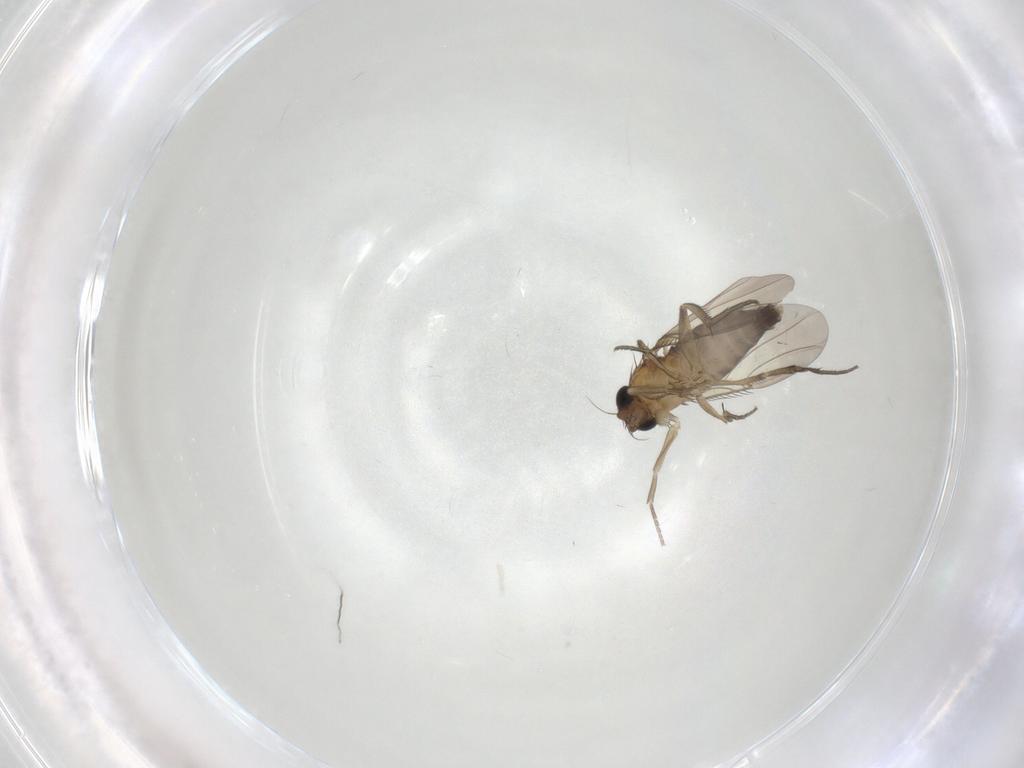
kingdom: Animalia
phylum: Arthropoda
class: Insecta
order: Diptera
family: Phoridae
